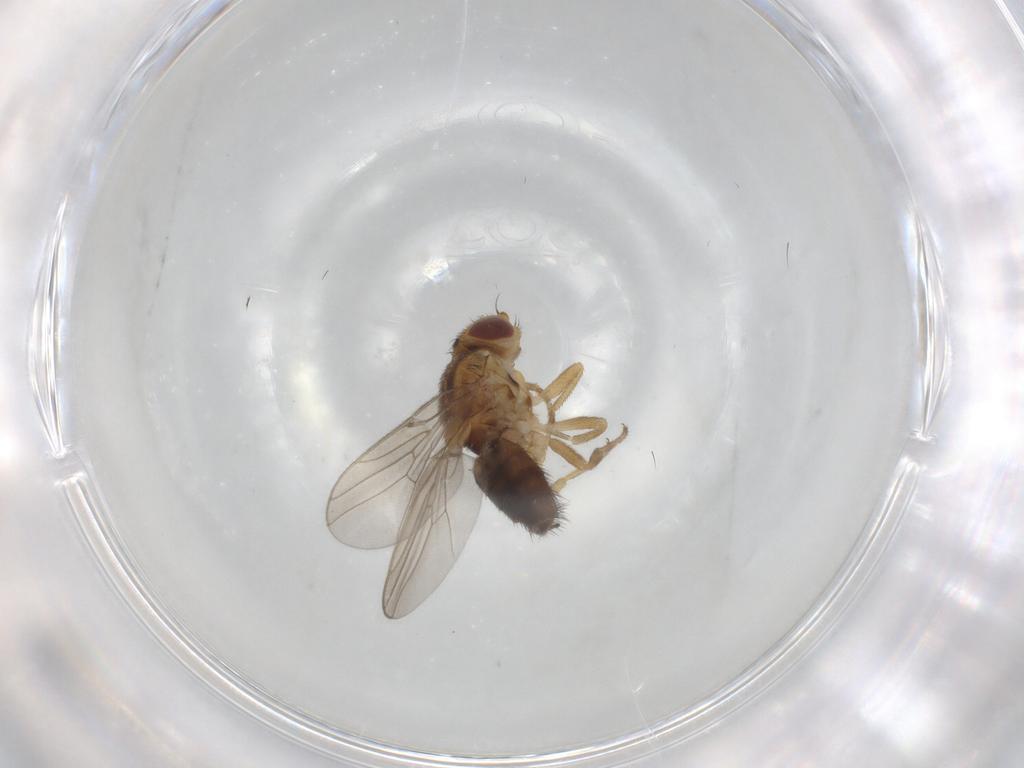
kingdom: Animalia
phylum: Arthropoda
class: Insecta
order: Diptera
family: Chloropidae
